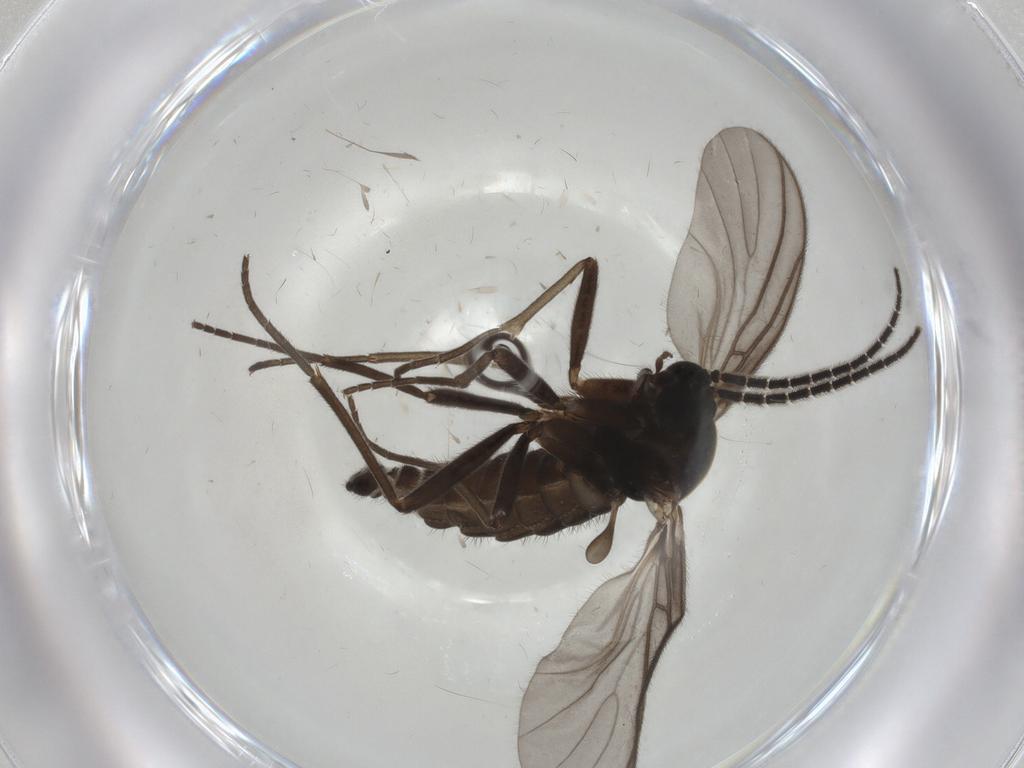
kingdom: Animalia
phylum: Arthropoda
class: Insecta
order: Diptera
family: Sciaridae
